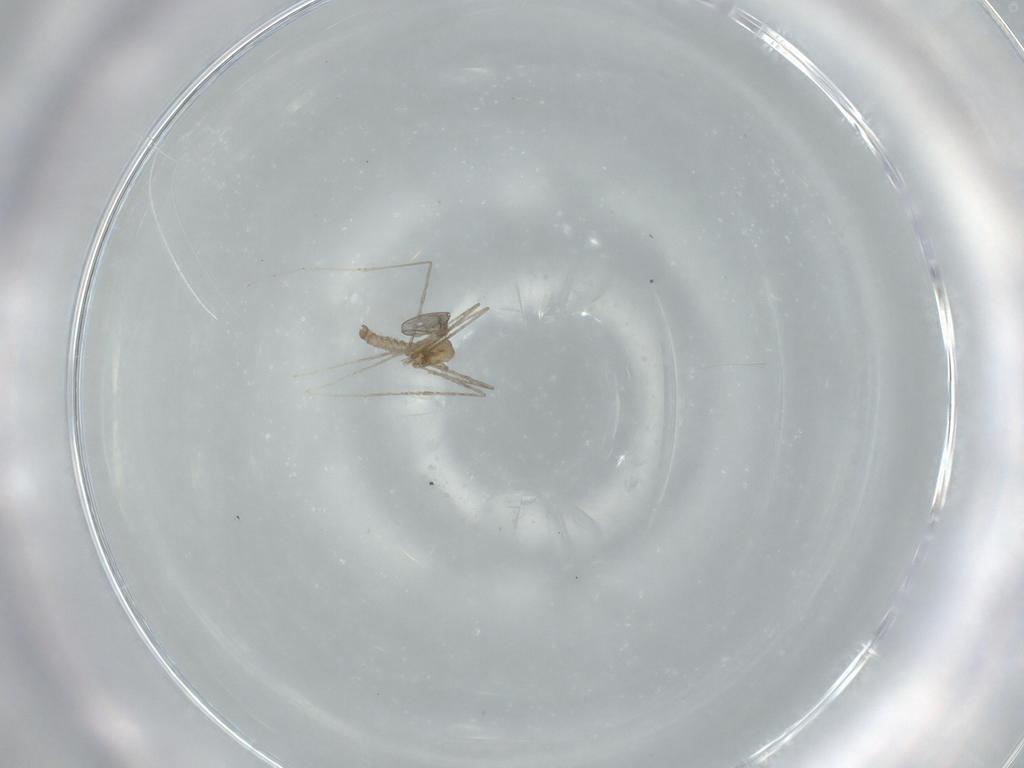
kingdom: Animalia
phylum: Arthropoda
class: Insecta
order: Diptera
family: Cecidomyiidae
